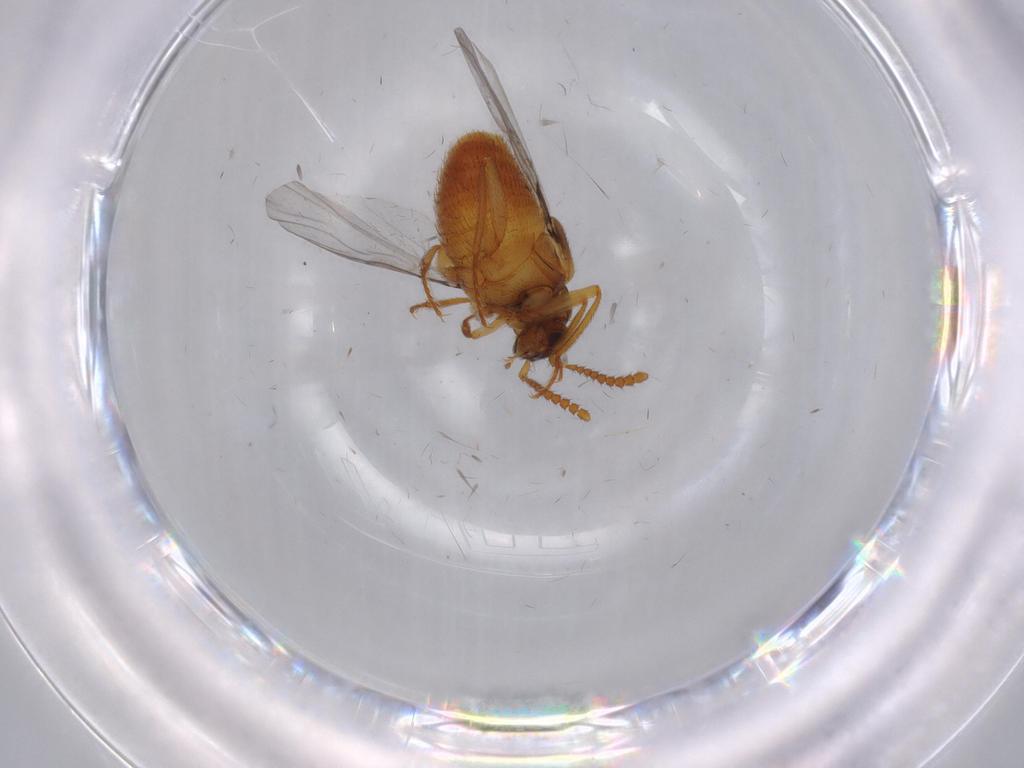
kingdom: Animalia
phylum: Arthropoda
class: Insecta
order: Coleoptera
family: Staphylinidae
